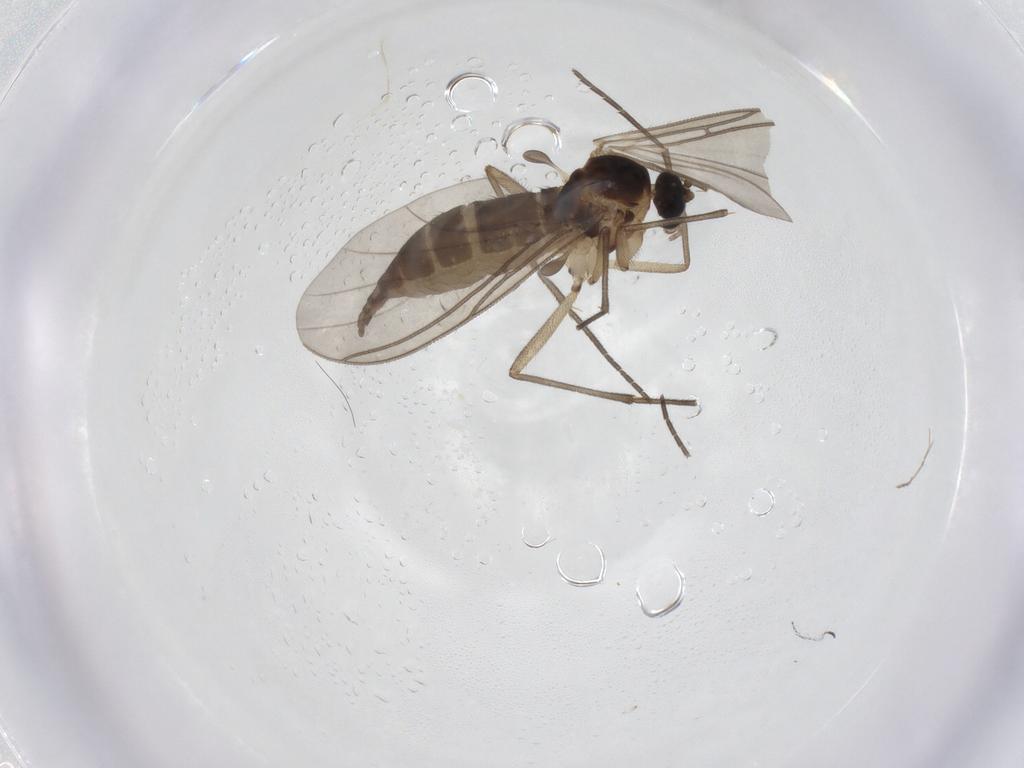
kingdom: Animalia
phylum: Arthropoda
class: Insecta
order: Diptera
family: Sciaridae
